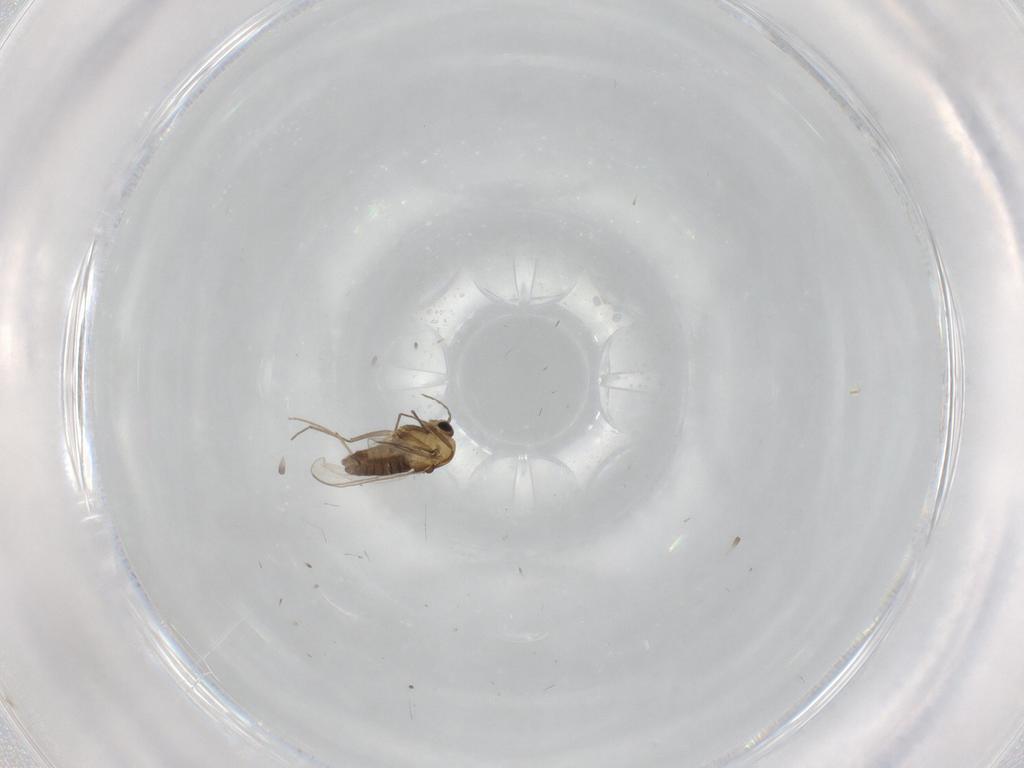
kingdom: Animalia
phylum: Arthropoda
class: Insecta
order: Diptera
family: Chironomidae
